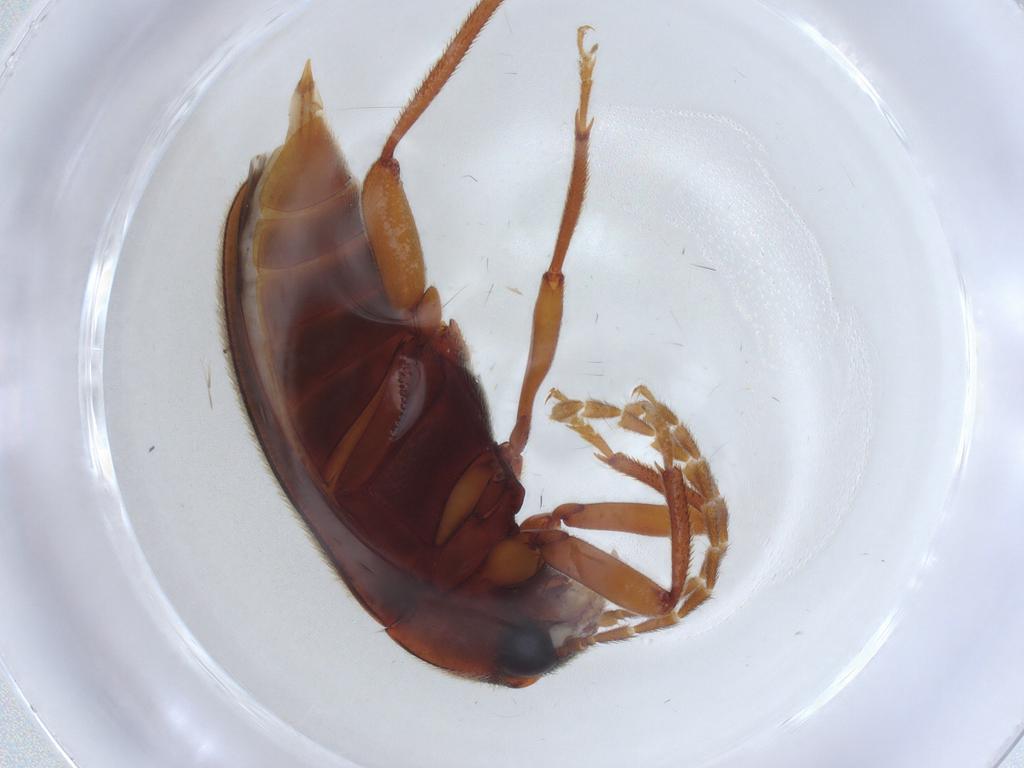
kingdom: Animalia
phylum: Arthropoda
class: Insecta
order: Coleoptera
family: Ptilodactylidae
